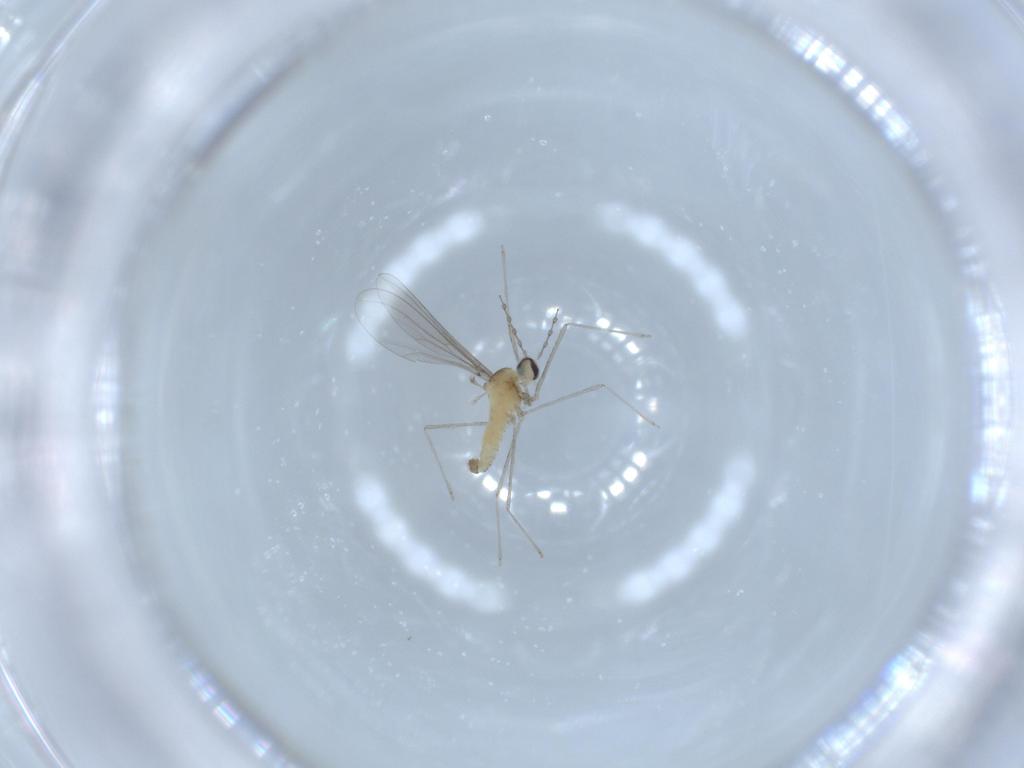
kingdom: Animalia
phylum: Arthropoda
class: Insecta
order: Diptera
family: Cecidomyiidae
